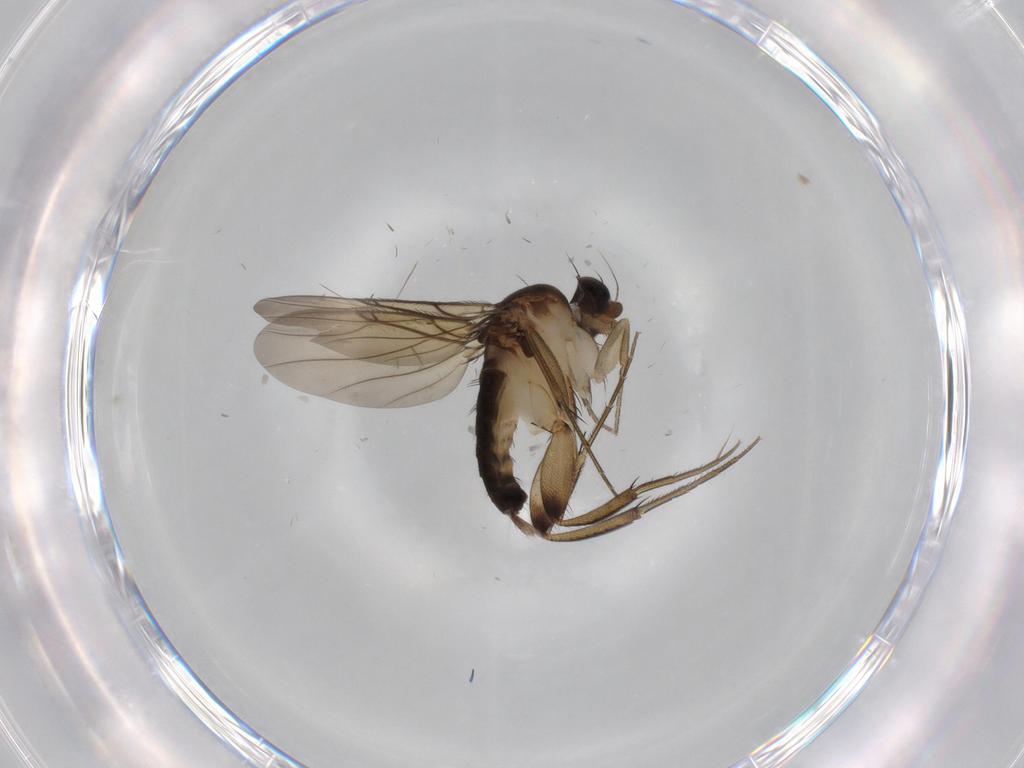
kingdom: Animalia
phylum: Arthropoda
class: Insecta
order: Diptera
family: Sciaridae
